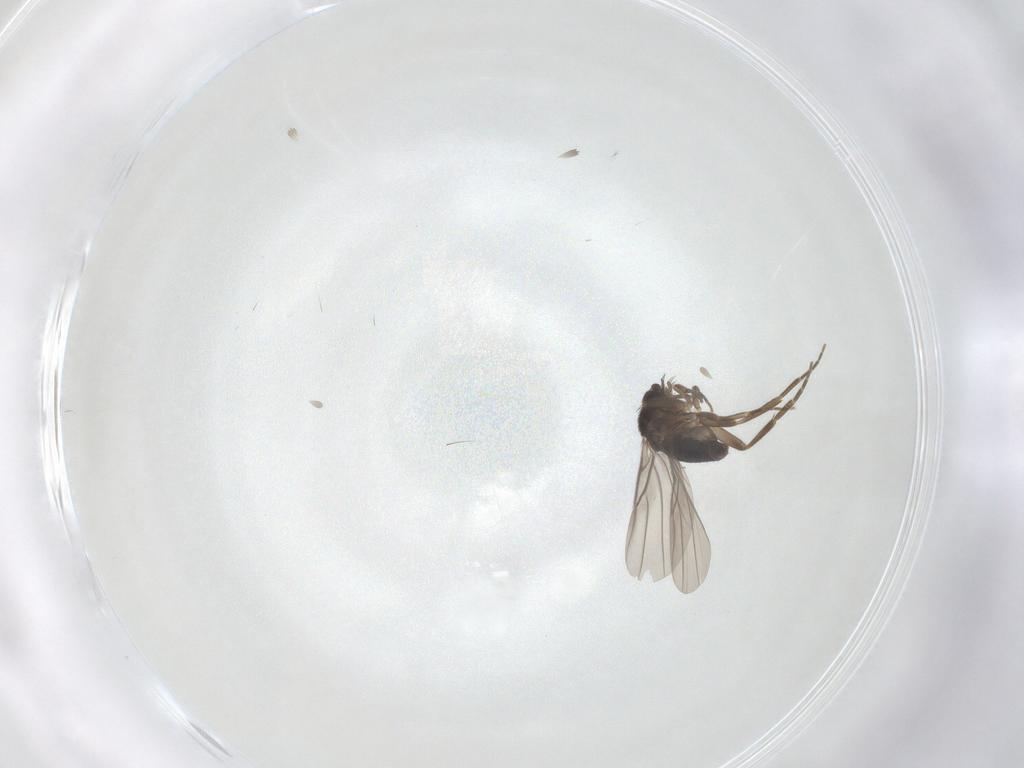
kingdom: Animalia
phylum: Arthropoda
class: Insecta
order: Diptera
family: Phoridae
